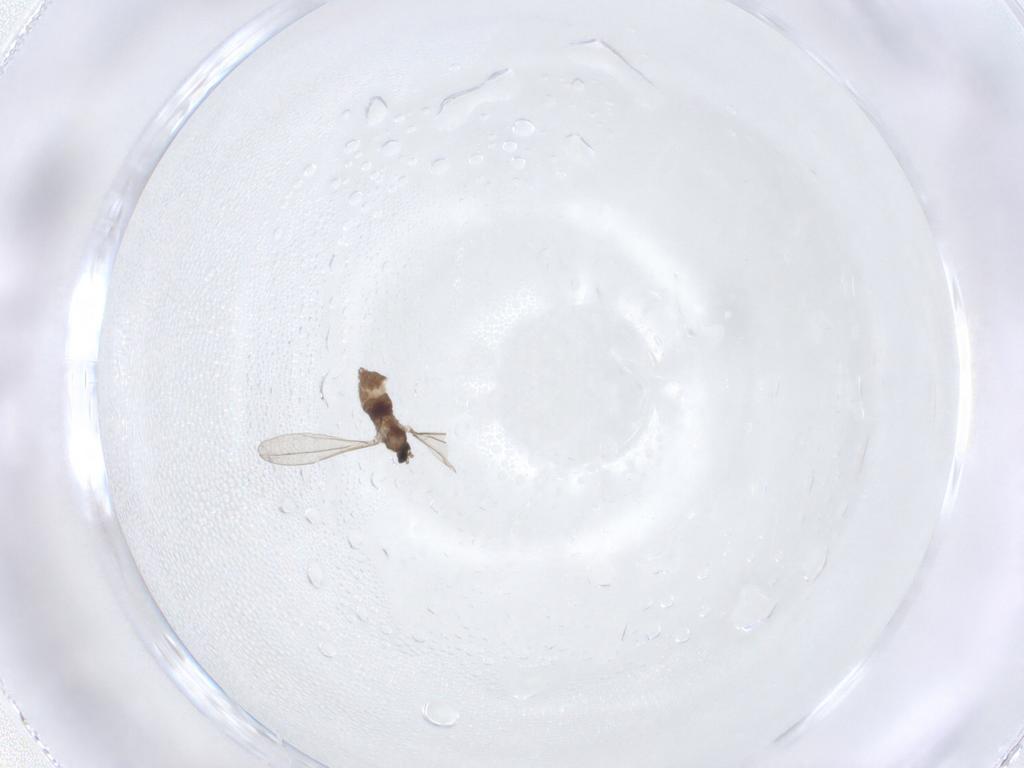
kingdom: Animalia
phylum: Arthropoda
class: Insecta
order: Diptera
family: Cecidomyiidae
